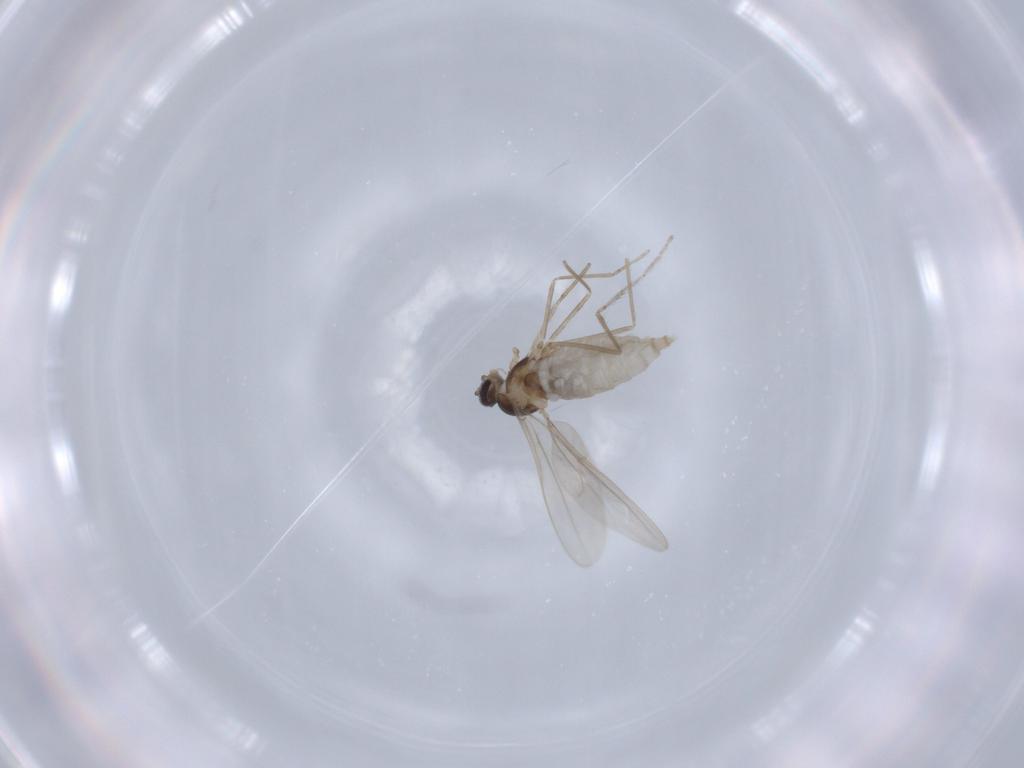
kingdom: Animalia
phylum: Arthropoda
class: Insecta
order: Diptera
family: Cecidomyiidae
